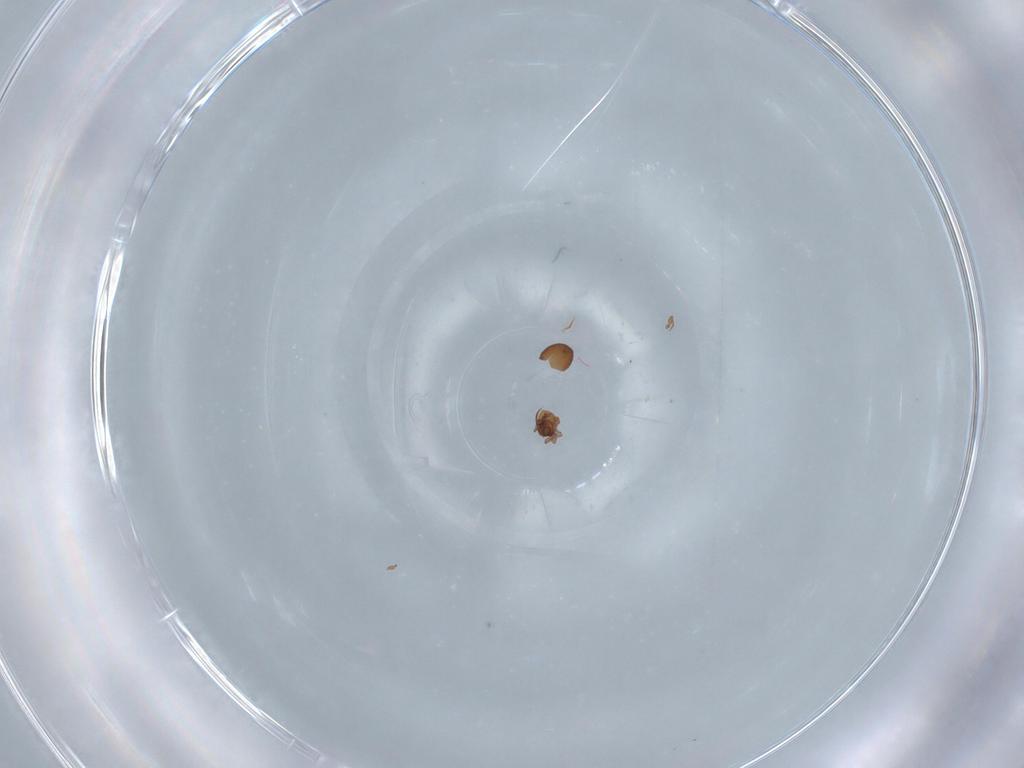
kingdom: Animalia
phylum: Arthropoda
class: Arachnida
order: Sarcoptiformes
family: Oribatulidae
